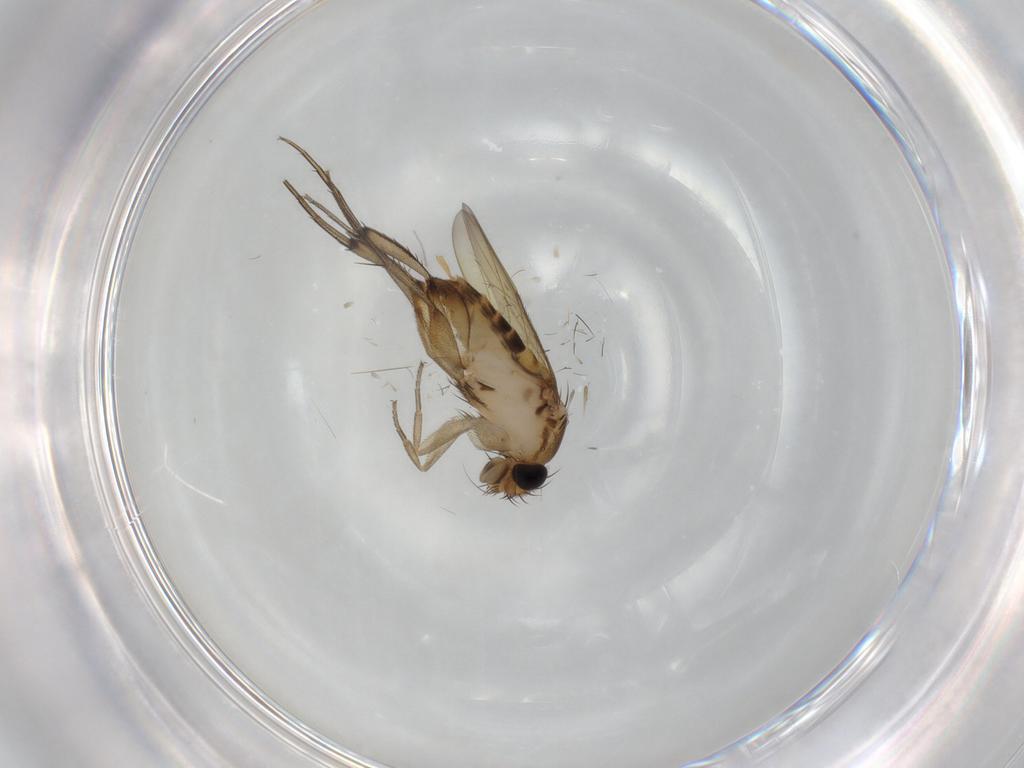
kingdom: Animalia
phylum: Arthropoda
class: Insecta
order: Diptera
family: Phoridae
